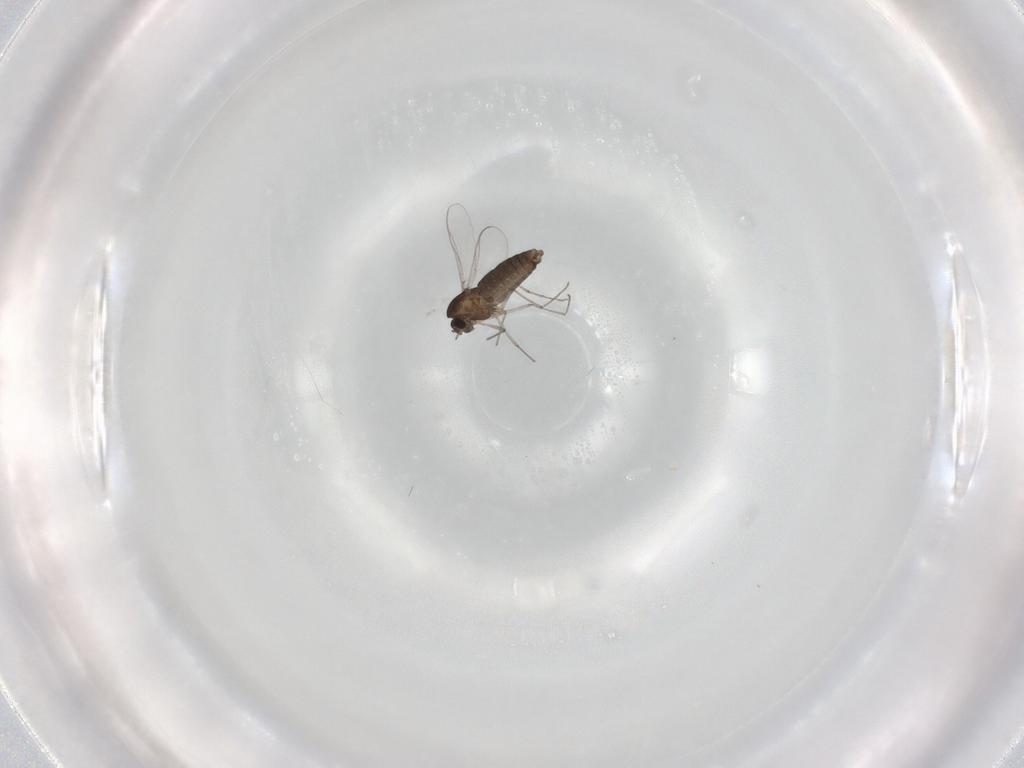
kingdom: Animalia
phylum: Arthropoda
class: Insecta
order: Diptera
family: Chironomidae
